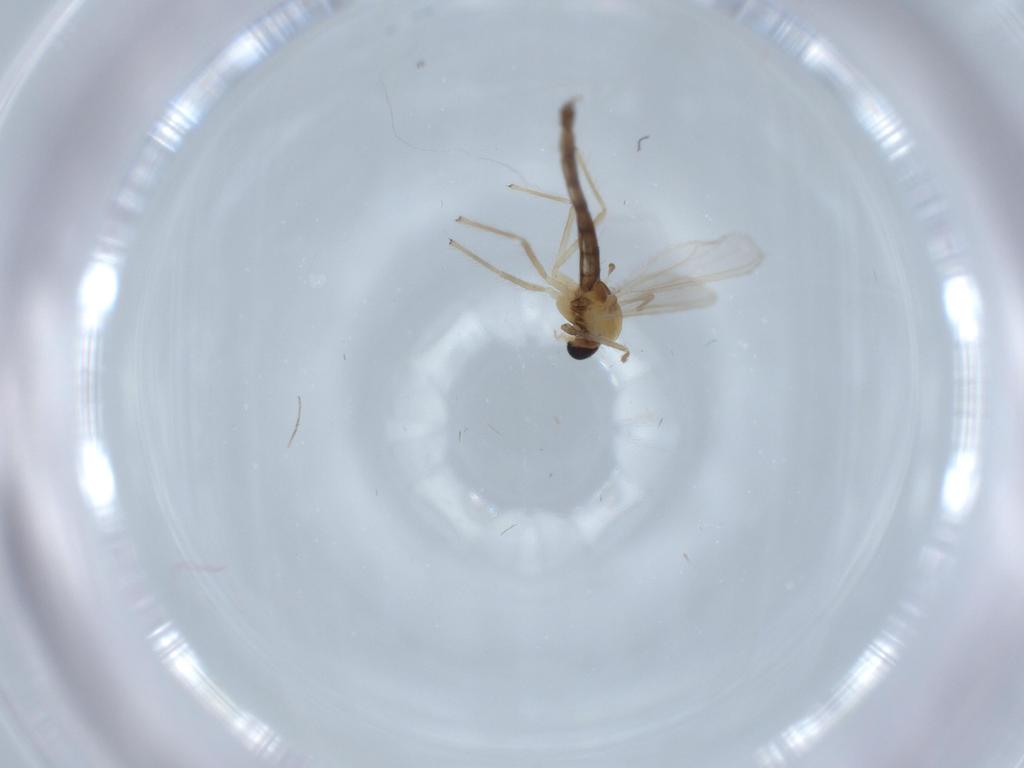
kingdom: Animalia
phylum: Arthropoda
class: Insecta
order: Diptera
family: Chironomidae
